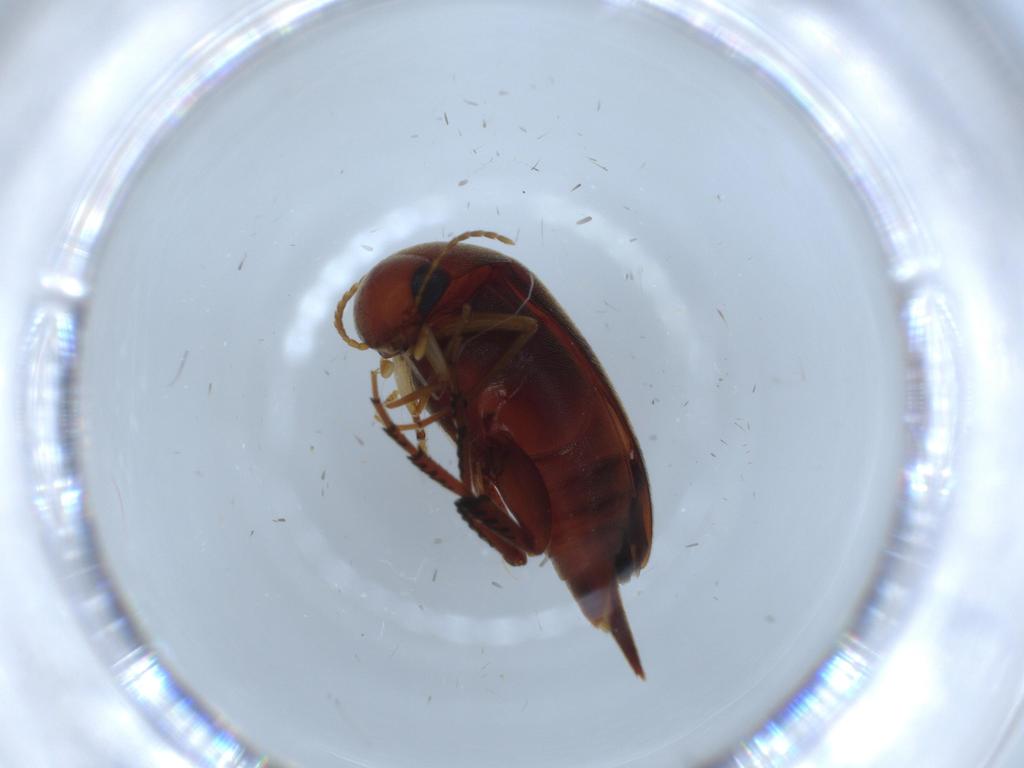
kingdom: Animalia
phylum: Arthropoda
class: Insecta
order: Coleoptera
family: Chrysomelidae
